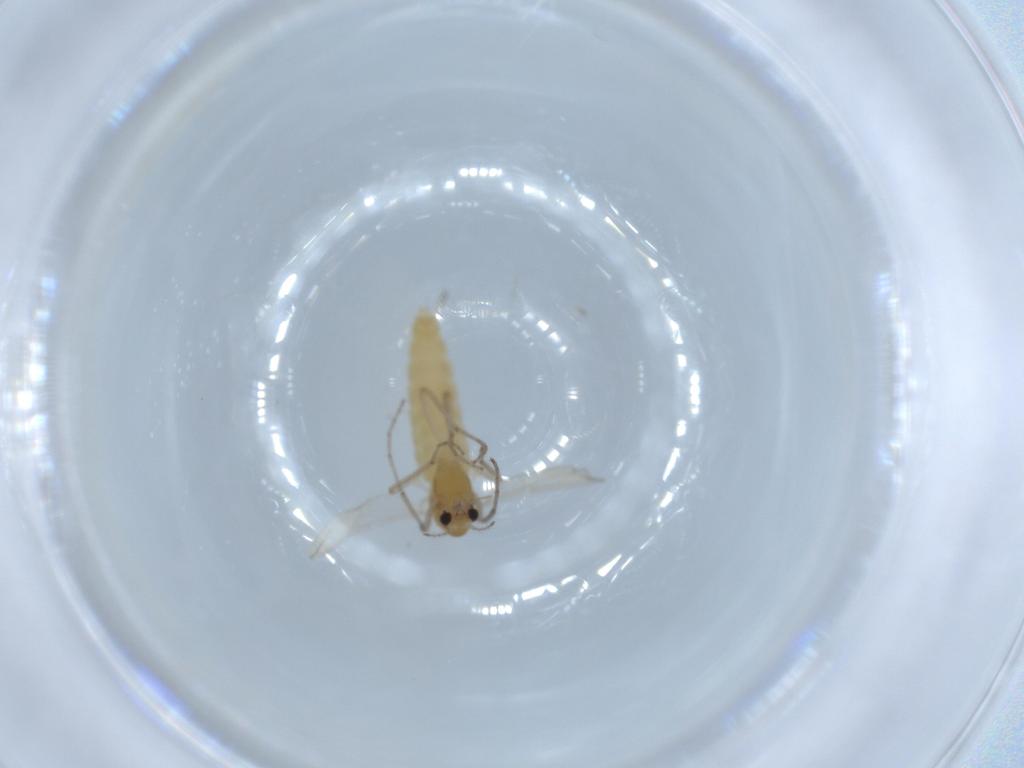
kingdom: Animalia
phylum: Arthropoda
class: Insecta
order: Diptera
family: Chironomidae
